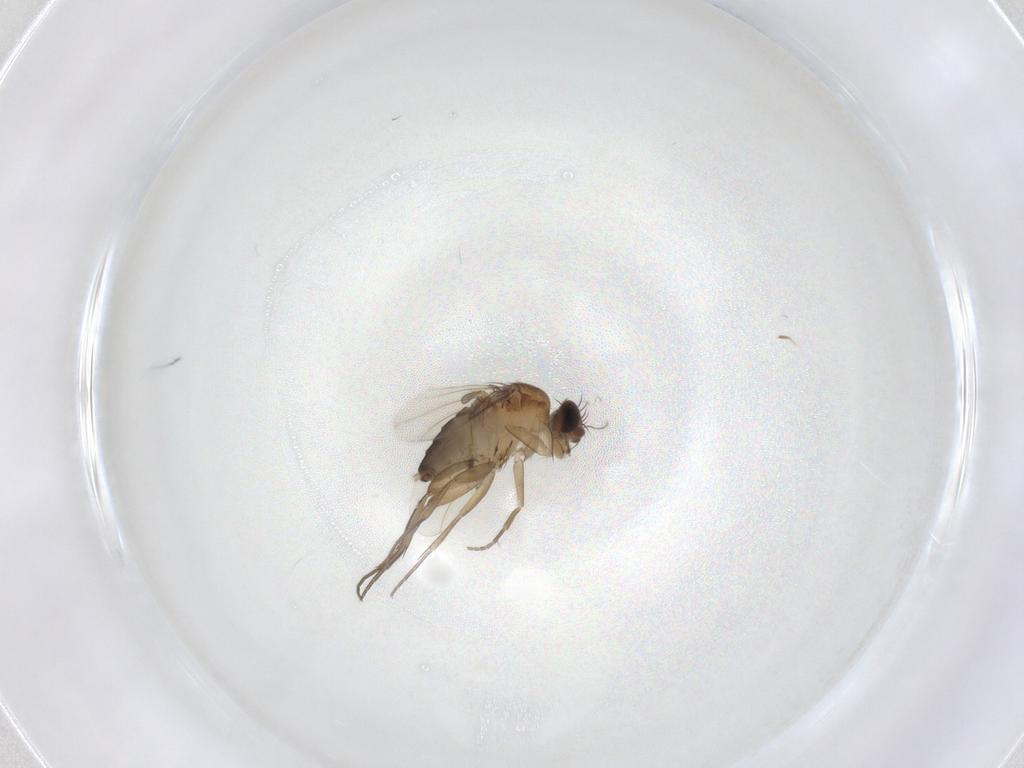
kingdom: Animalia
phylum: Arthropoda
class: Insecta
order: Diptera
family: Phoridae
